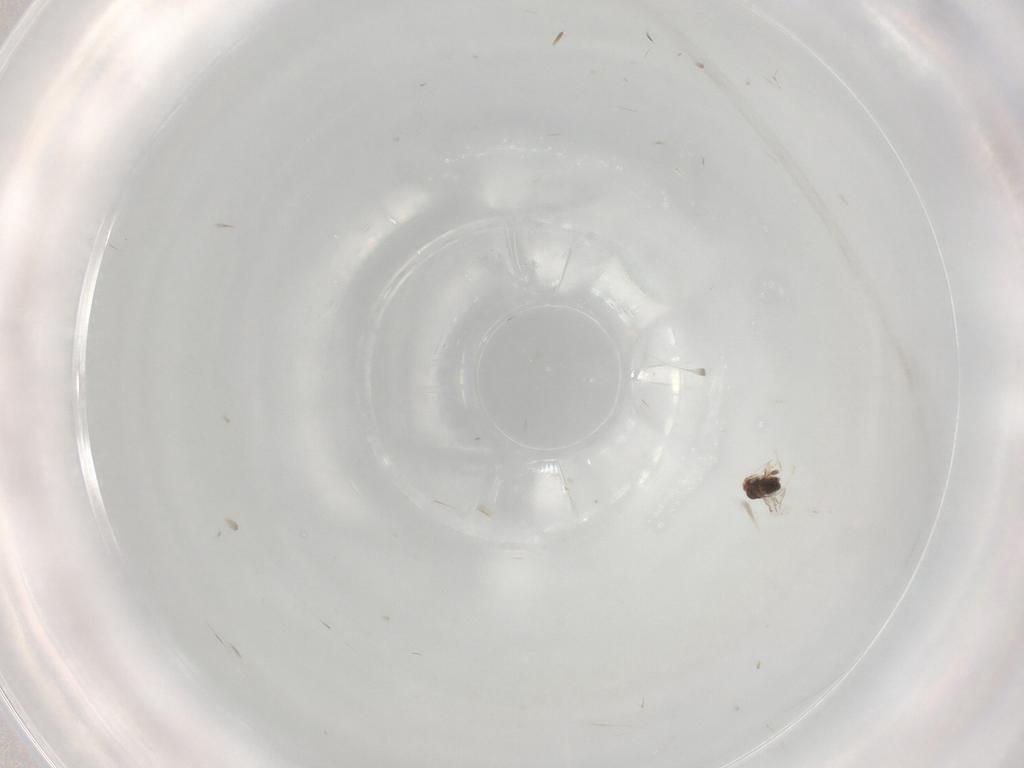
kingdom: Animalia
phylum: Arthropoda
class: Insecta
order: Hymenoptera
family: Trichogrammatidae
